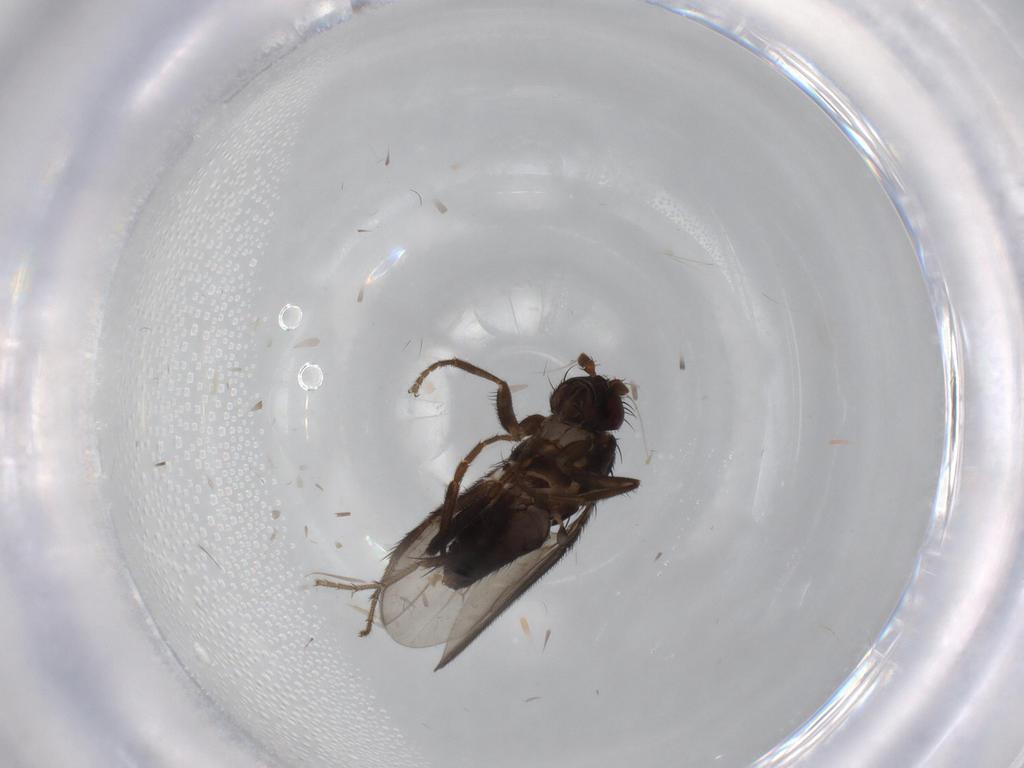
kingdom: Animalia
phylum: Arthropoda
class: Insecta
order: Diptera
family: Sphaeroceridae
